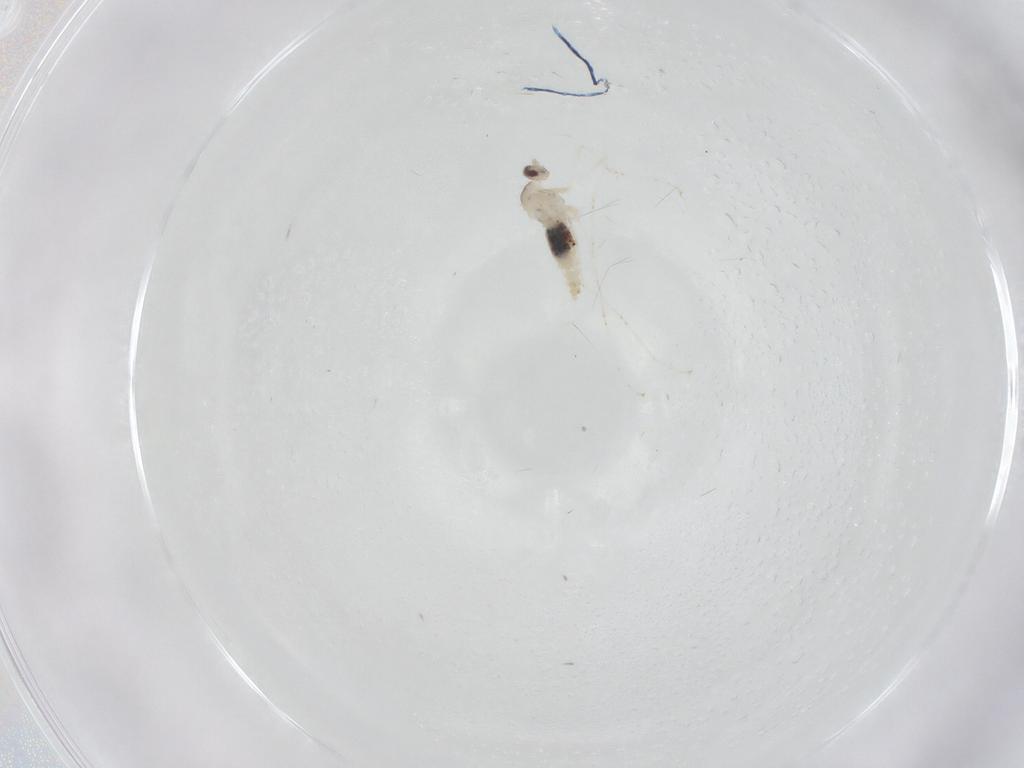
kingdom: Animalia
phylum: Arthropoda
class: Insecta
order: Diptera
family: Cecidomyiidae
